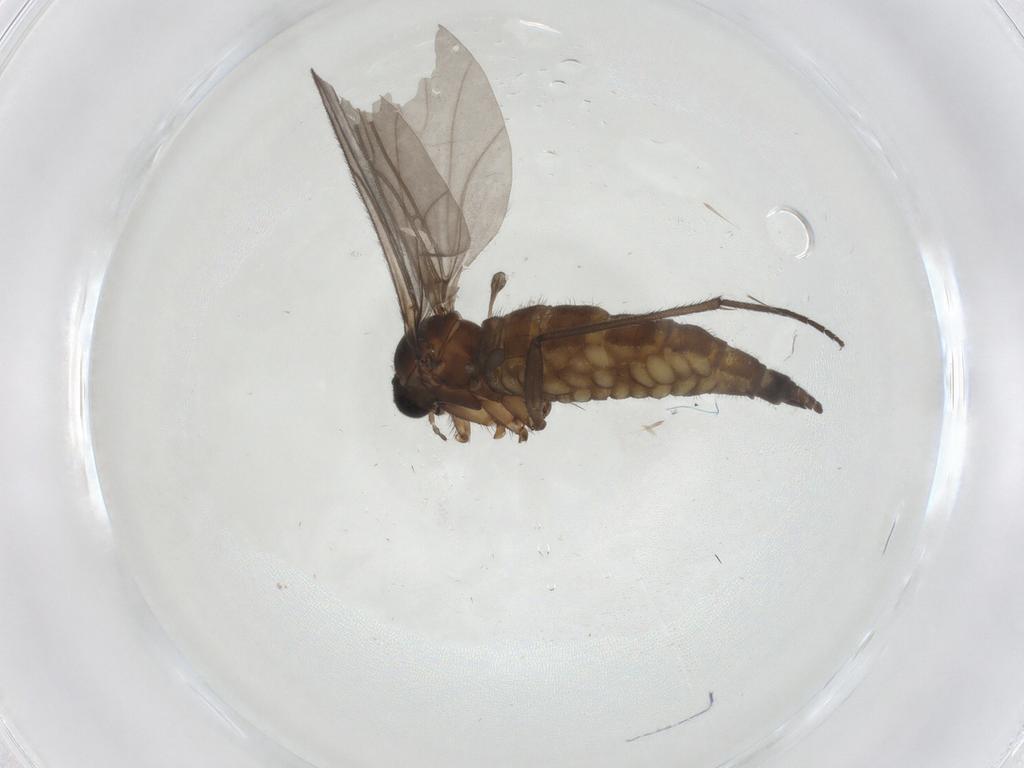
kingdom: Animalia
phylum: Arthropoda
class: Insecta
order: Diptera
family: Sciaridae
